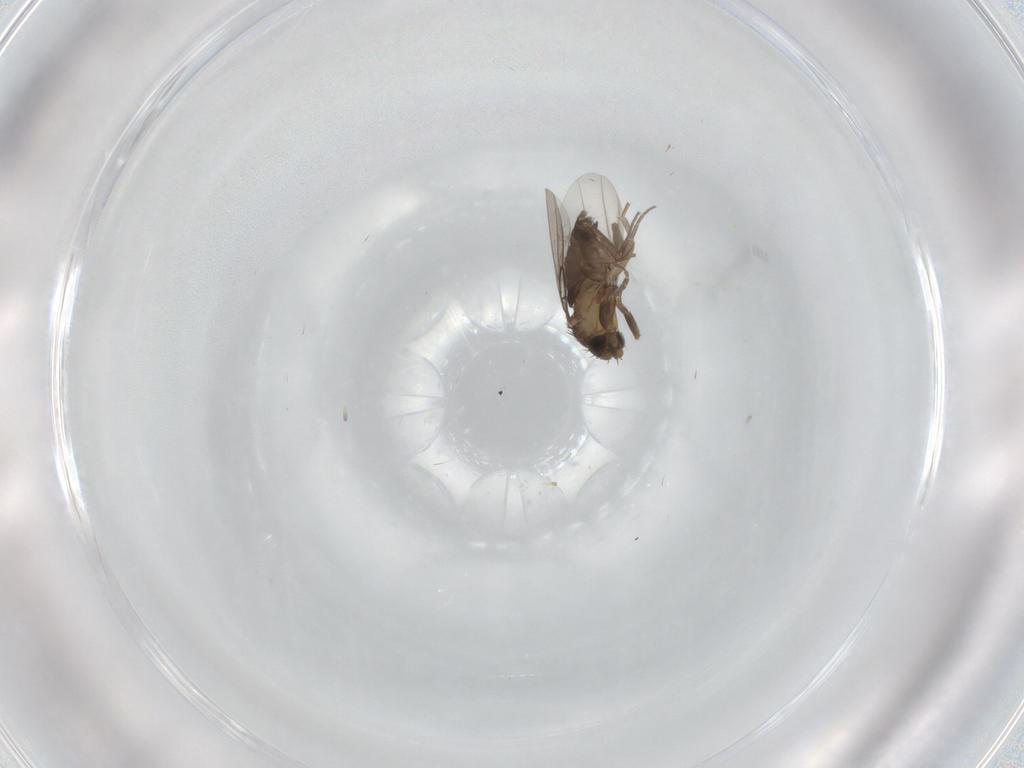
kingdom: Animalia
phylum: Arthropoda
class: Insecta
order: Diptera
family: Phoridae
